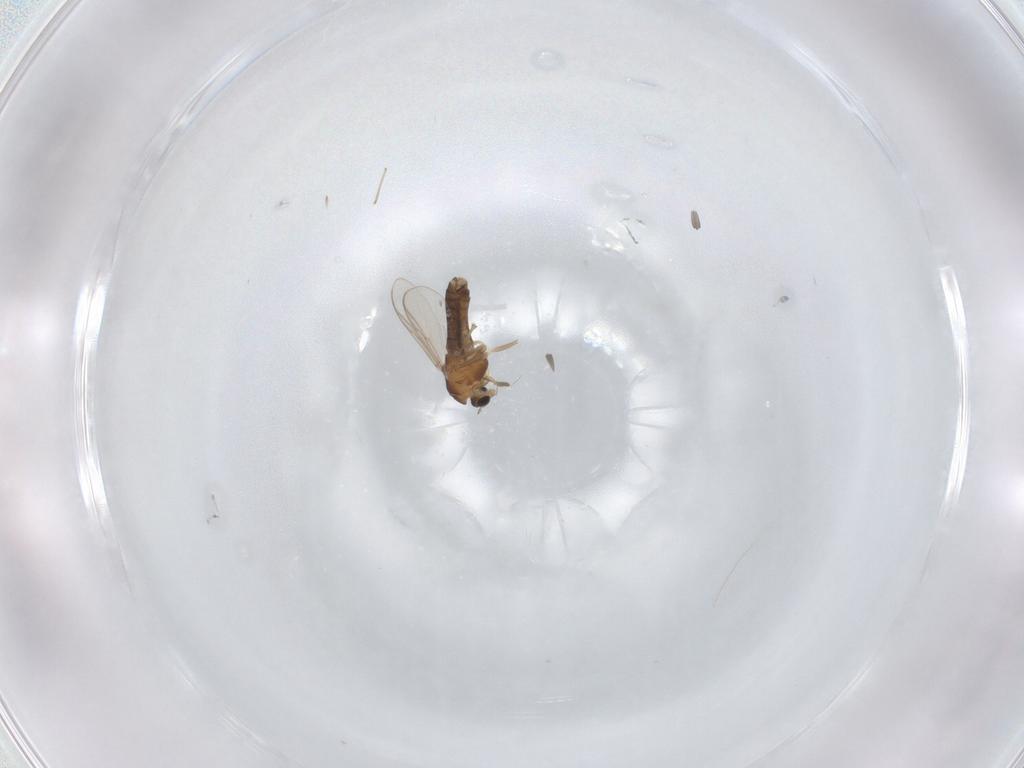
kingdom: Animalia
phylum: Arthropoda
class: Insecta
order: Diptera
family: Chironomidae
